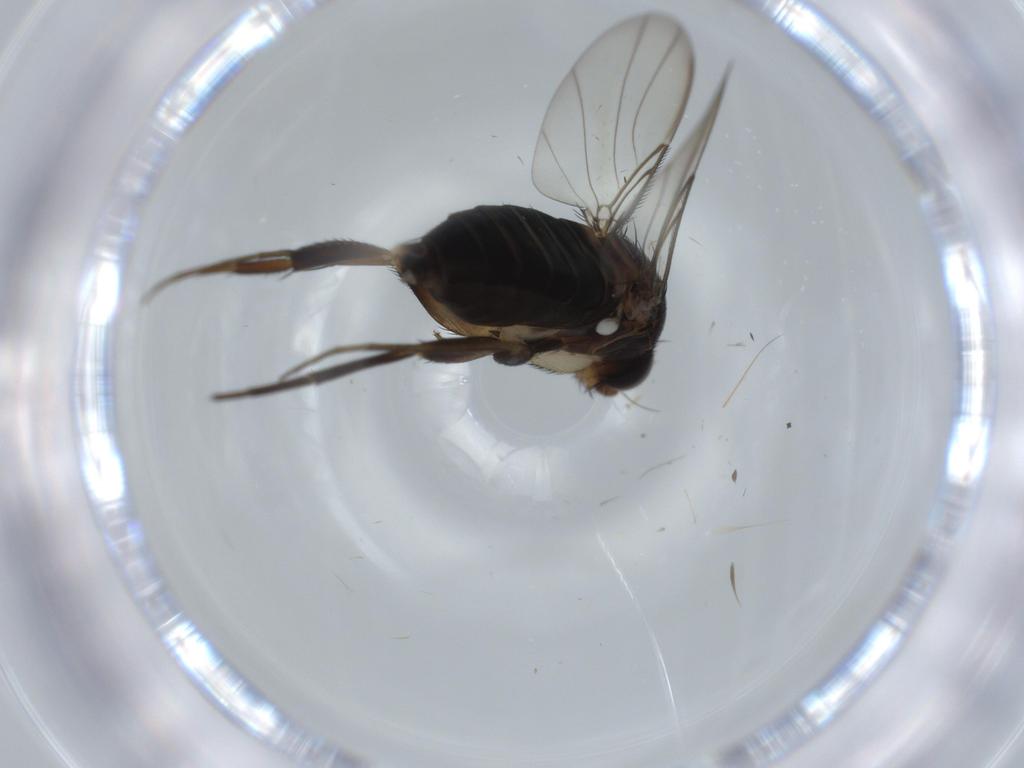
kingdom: Animalia
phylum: Arthropoda
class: Insecta
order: Diptera
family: Phoridae
